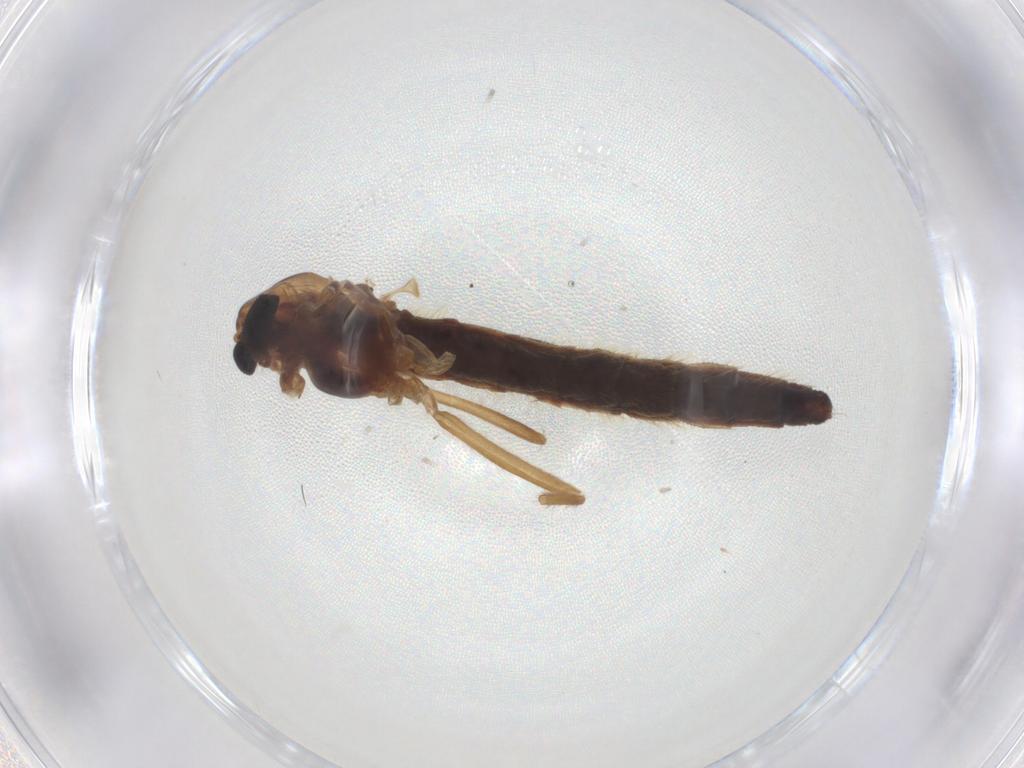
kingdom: Animalia
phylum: Arthropoda
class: Insecta
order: Diptera
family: Chironomidae
